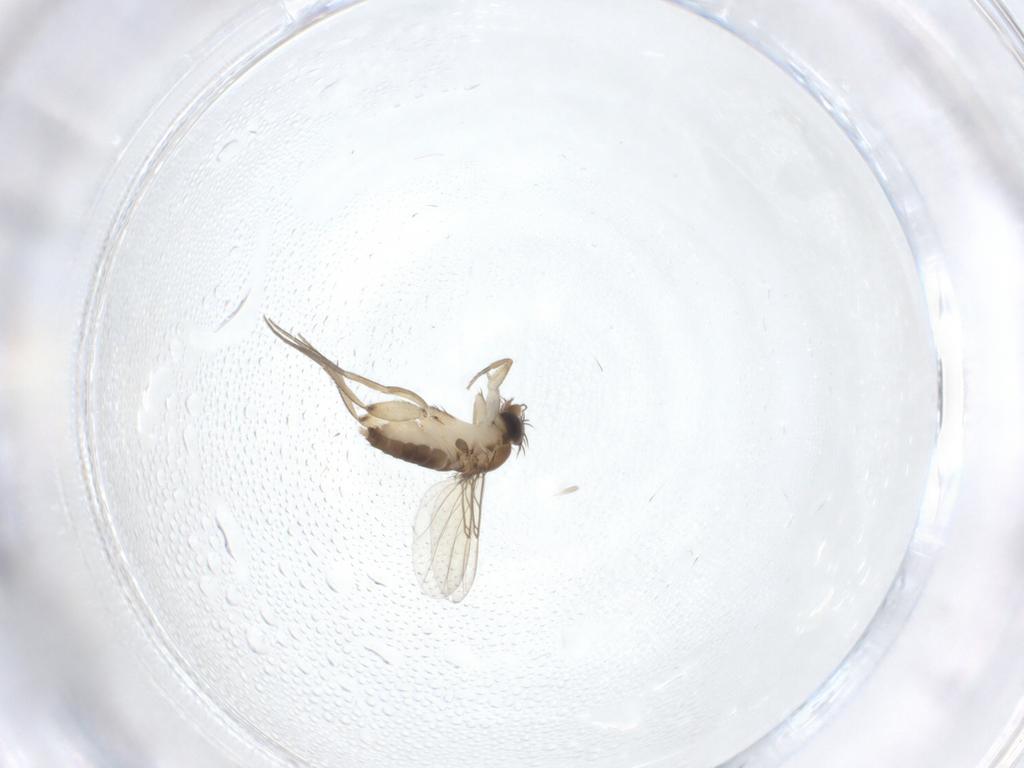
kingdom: Animalia
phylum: Arthropoda
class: Insecta
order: Diptera
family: Phoridae
